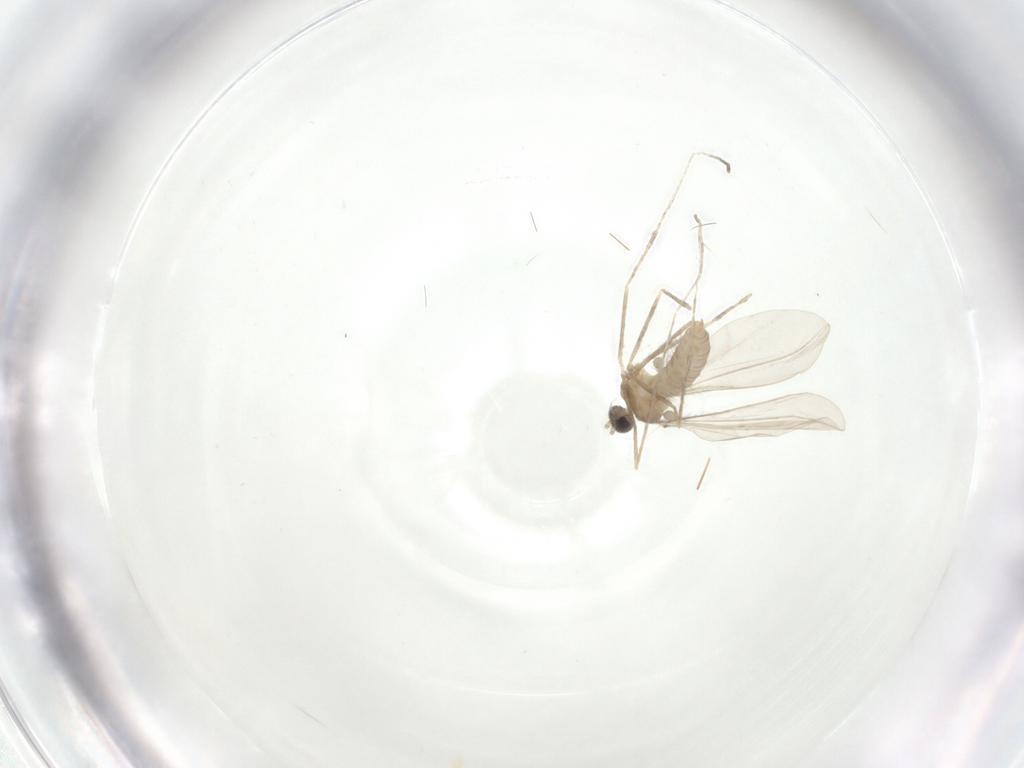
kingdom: Animalia
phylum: Arthropoda
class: Insecta
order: Diptera
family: Cecidomyiidae
